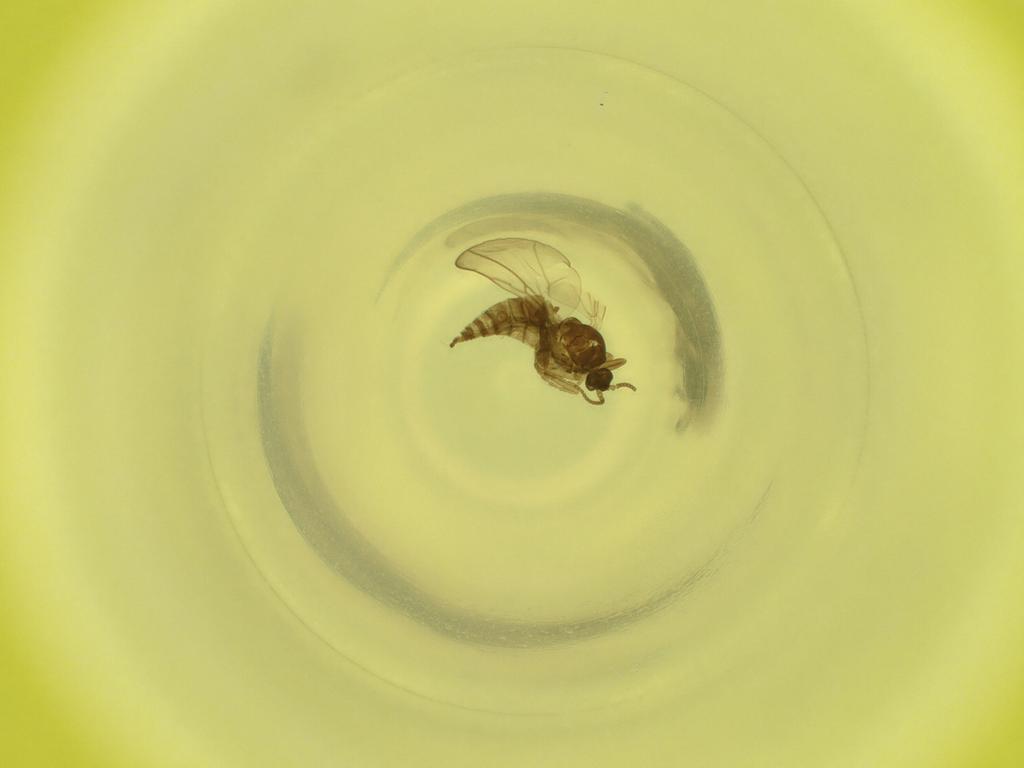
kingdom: Animalia
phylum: Arthropoda
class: Insecta
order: Diptera
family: Cecidomyiidae
